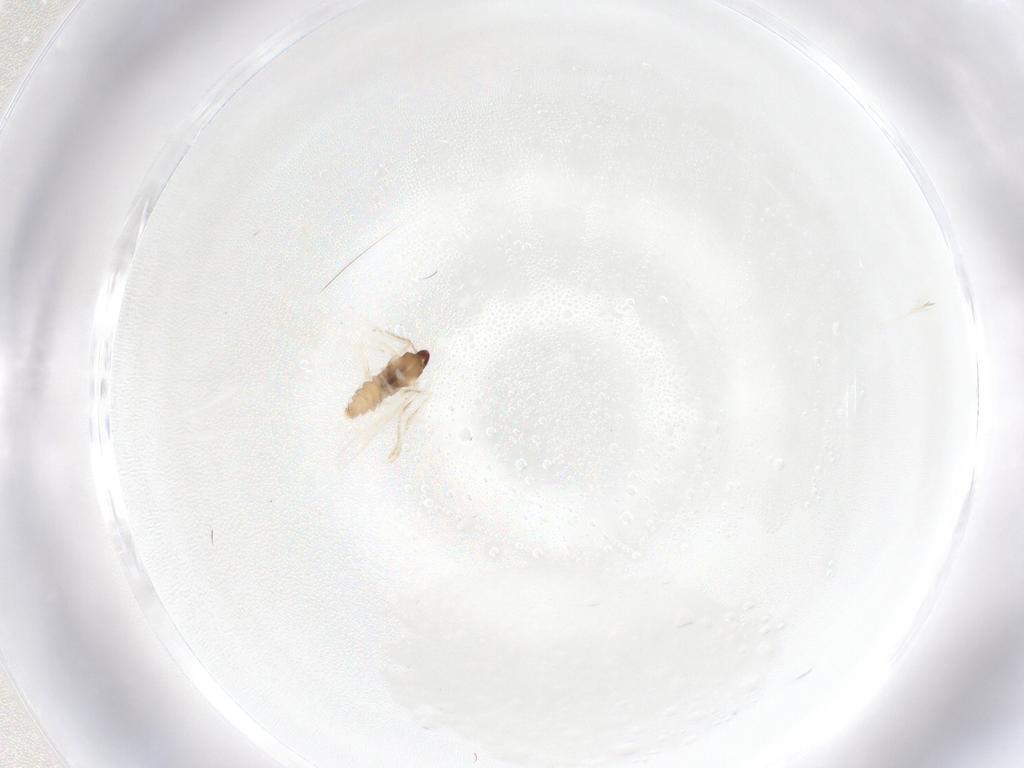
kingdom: Animalia
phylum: Arthropoda
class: Insecta
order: Diptera
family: Cecidomyiidae
